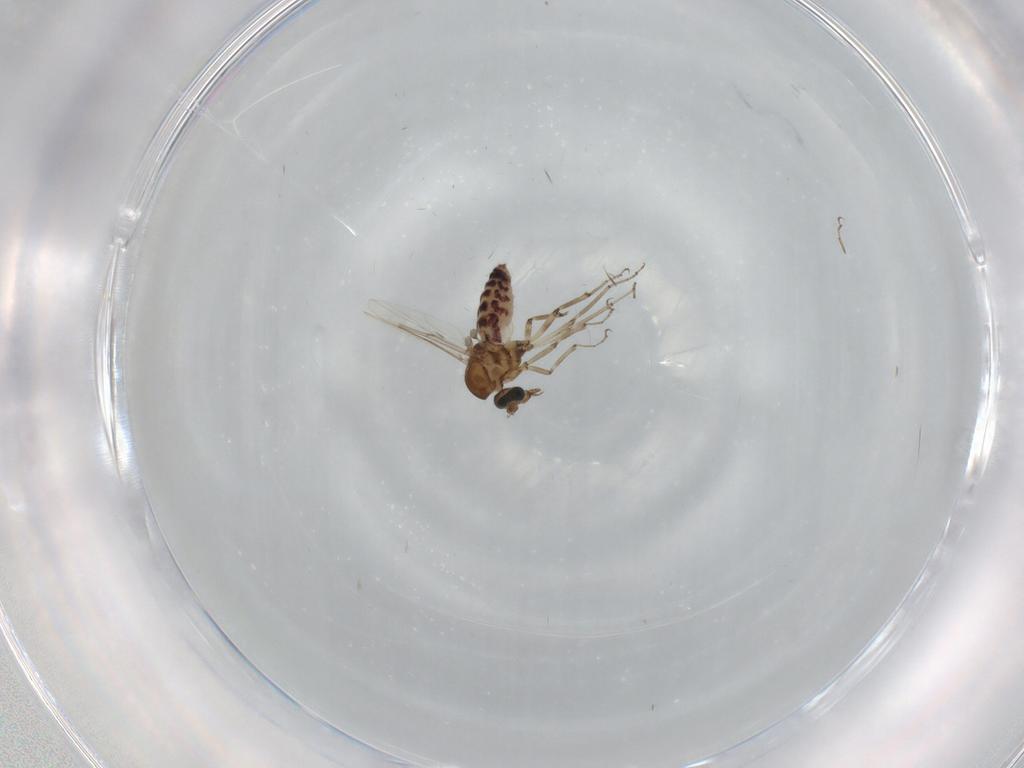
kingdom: Animalia
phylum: Arthropoda
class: Insecta
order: Diptera
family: Ceratopogonidae
